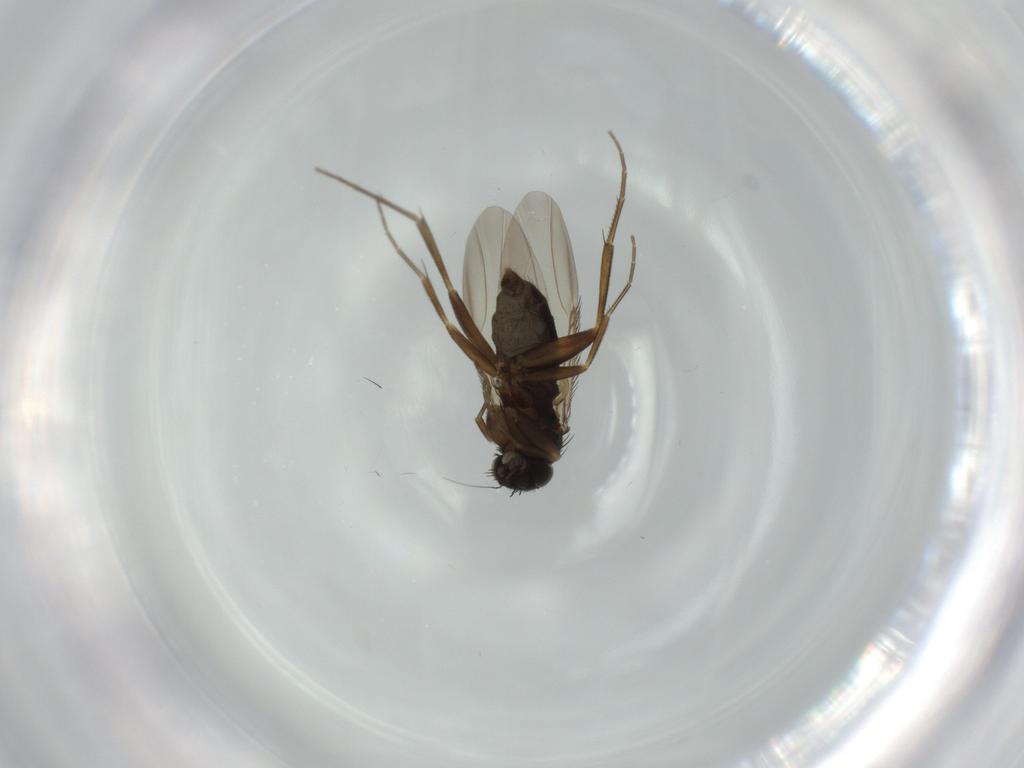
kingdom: Animalia
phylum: Arthropoda
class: Insecta
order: Diptera
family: Phoridae
